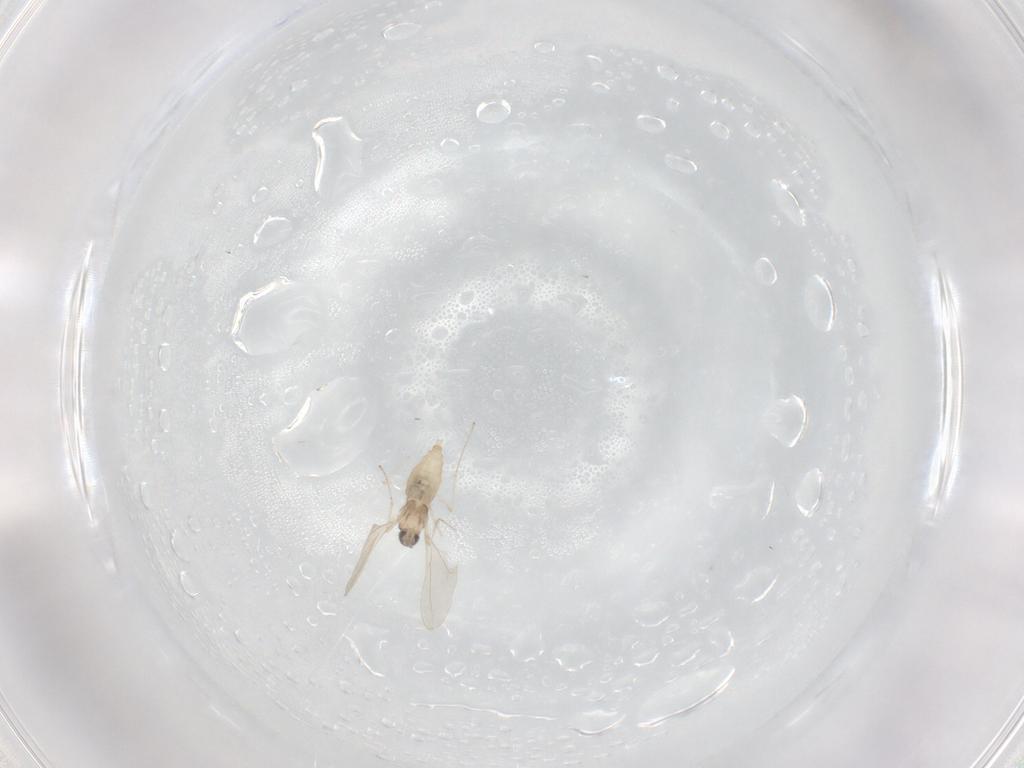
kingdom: Animalia
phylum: Arthropoda
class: Insecta
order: Diptera
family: Cecidomyiidae
